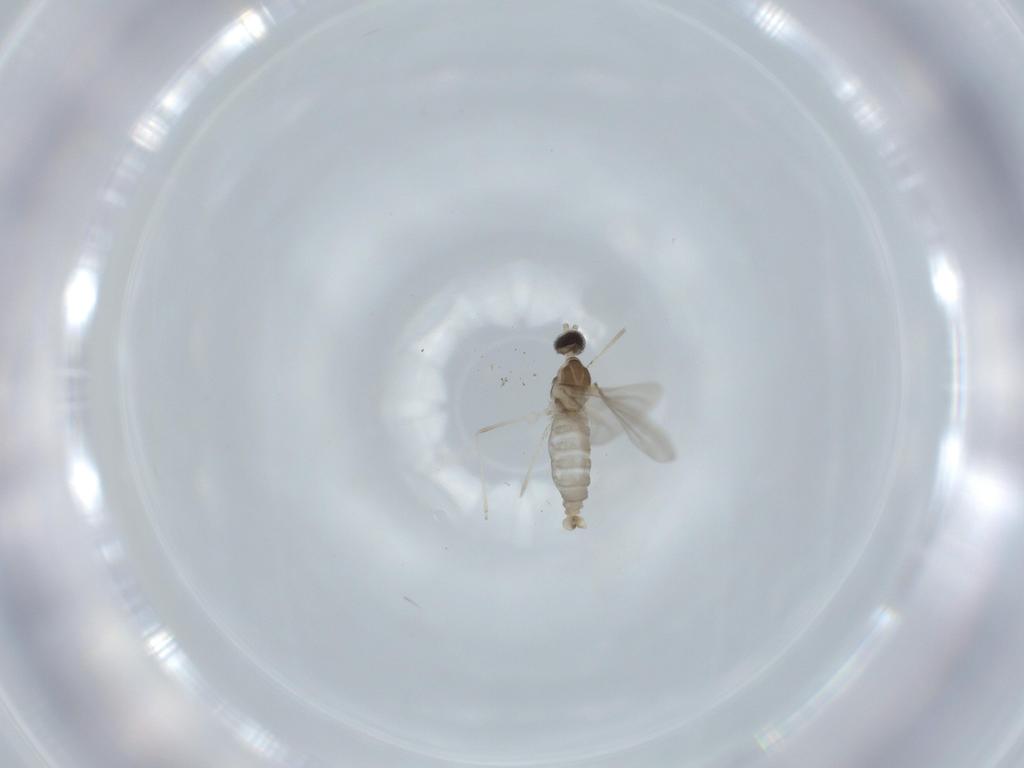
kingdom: Animalia
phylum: Arthropoda
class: Insecta
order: Diptera
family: Cecidomyiidae
